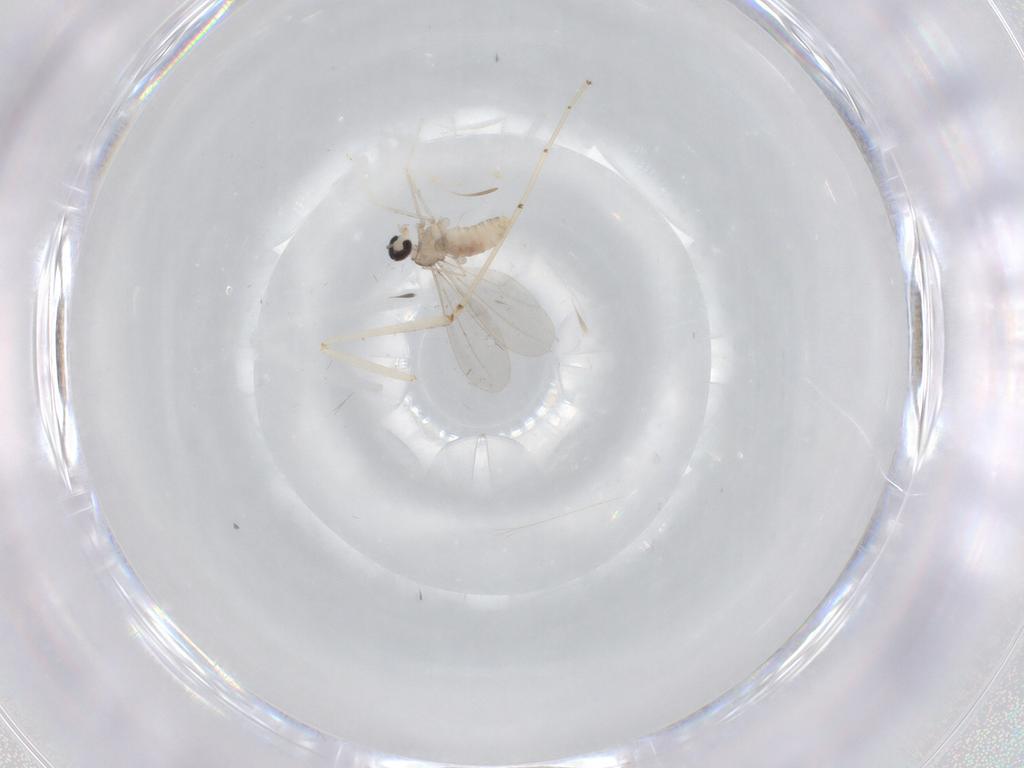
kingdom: Animalia
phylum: Arthropoda
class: Insecta
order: Diptera
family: Cecidomyiidae
